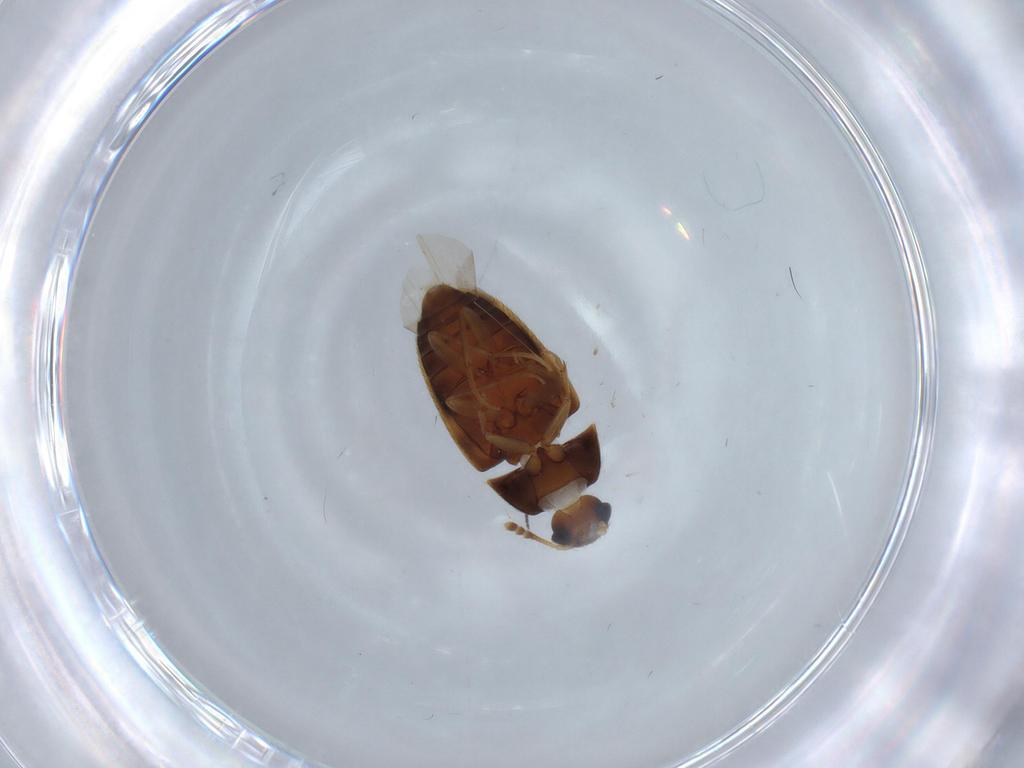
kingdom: Animalia
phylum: Arthropoda
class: Insecta
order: Coleoptera
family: Mycetophagidae
